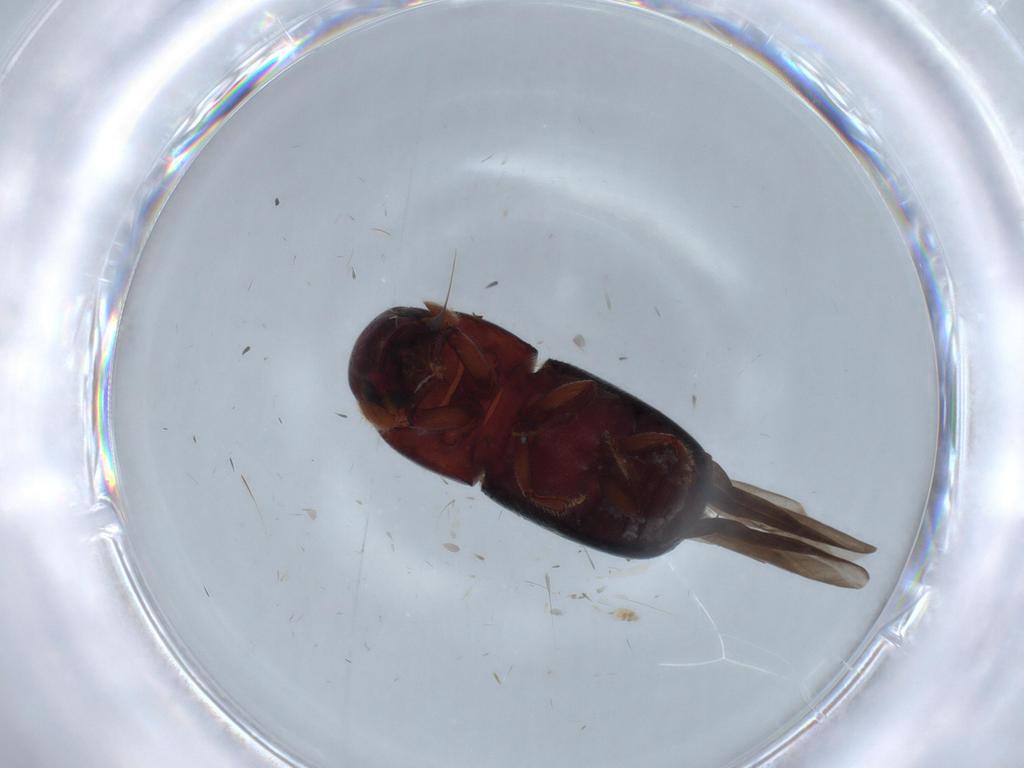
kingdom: Animalia
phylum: Arthropoda
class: Insecta
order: Coleoptera
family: Curculionidae
